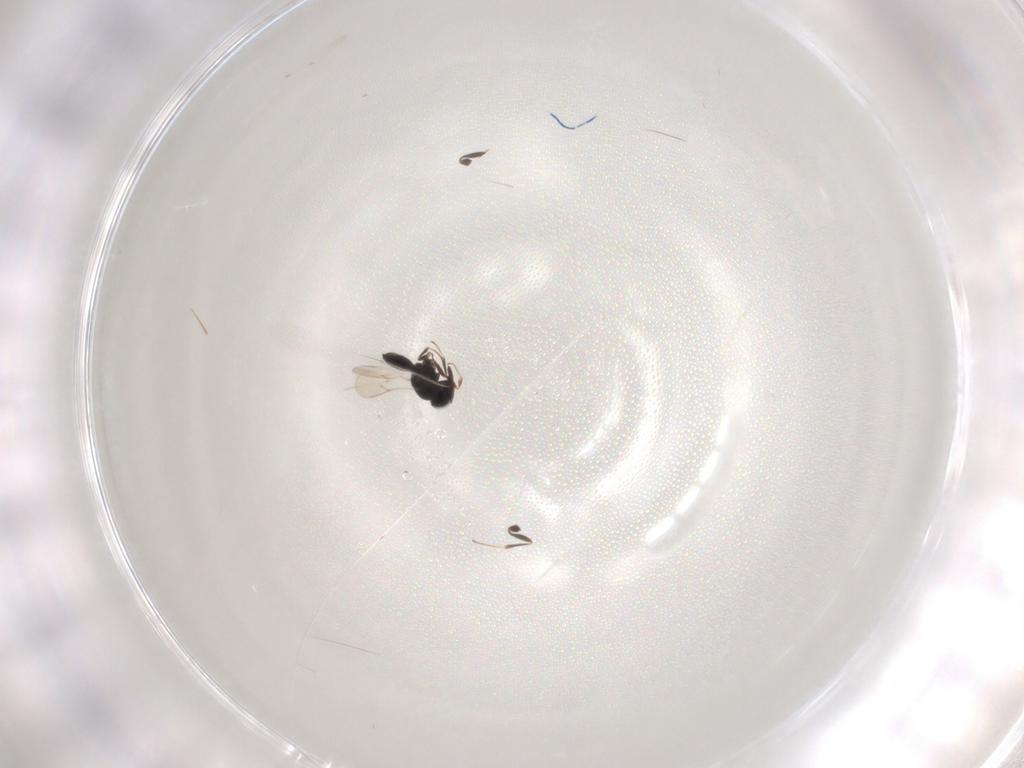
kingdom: Animalia
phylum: Arthropoda
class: Insecta
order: Hymenoptera
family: Scelionidae
